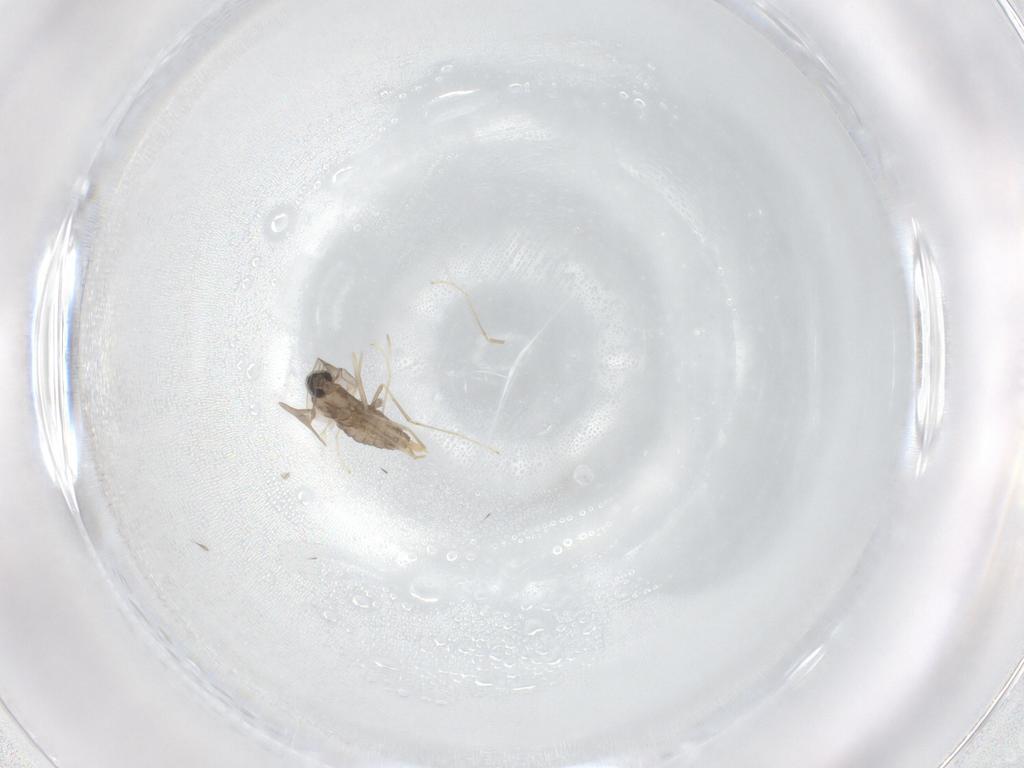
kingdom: Animalia
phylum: Arthropoda
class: Insecta
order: Diptera
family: Cecidomyiidae
